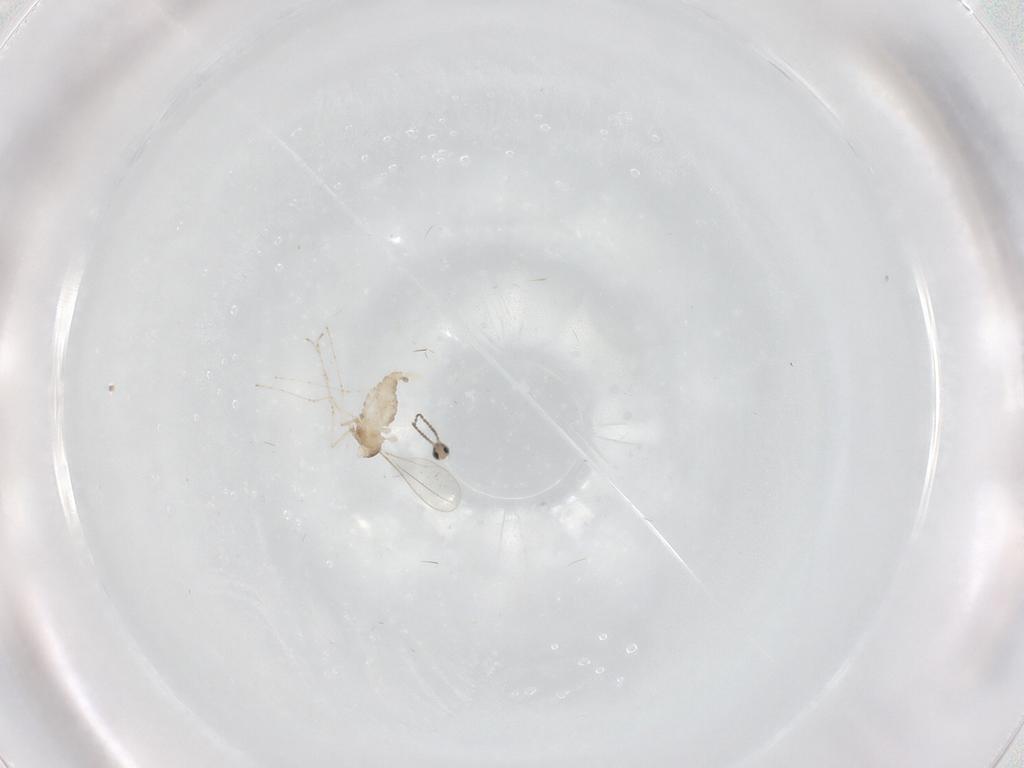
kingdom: Animalia
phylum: Arthropoda
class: Insecta
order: Diptera
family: Cecidomyiidae
